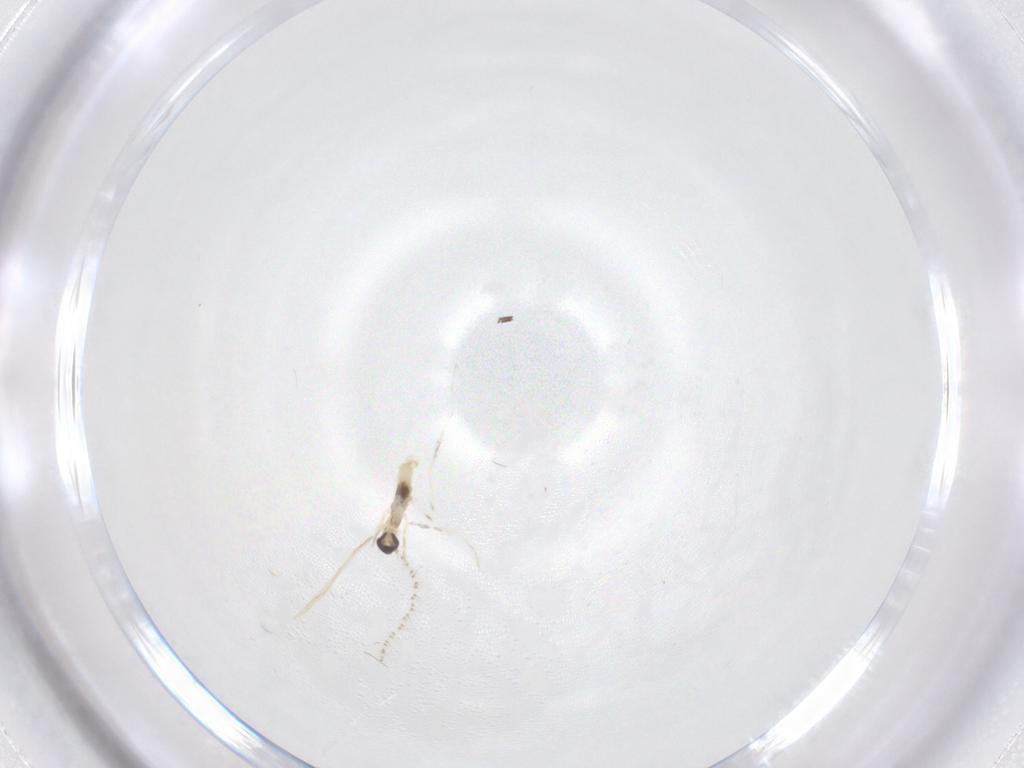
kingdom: Animalia
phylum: Arthropoda
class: Insecta
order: Diptera
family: Cecidomyiidae
